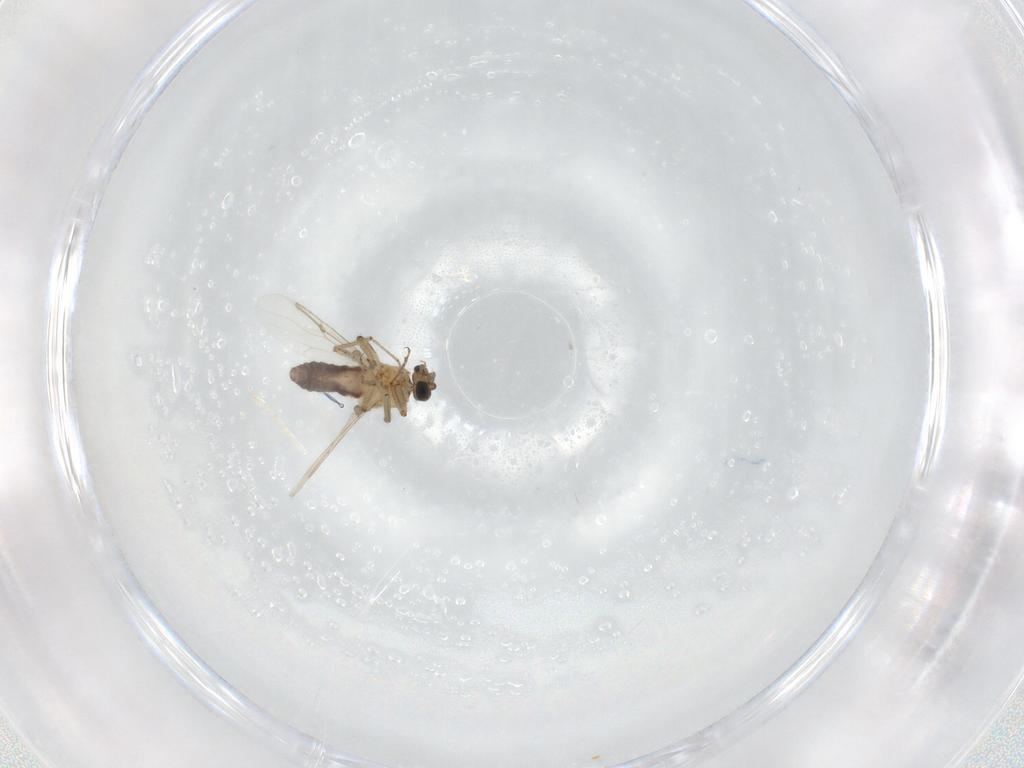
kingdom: Animalia
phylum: Arthropoda
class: Insecta
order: Diptera
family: Ceratopogonidae
